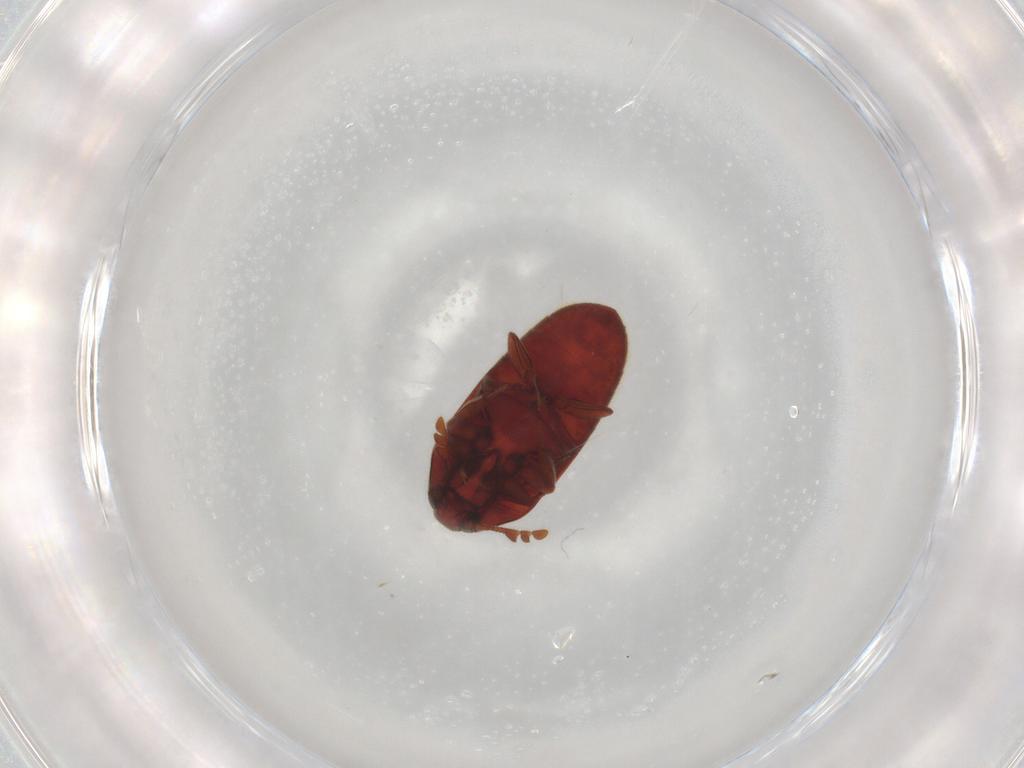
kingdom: Animalia
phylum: Arthropoda
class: Insecta
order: Coleoptera
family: Throscidae
